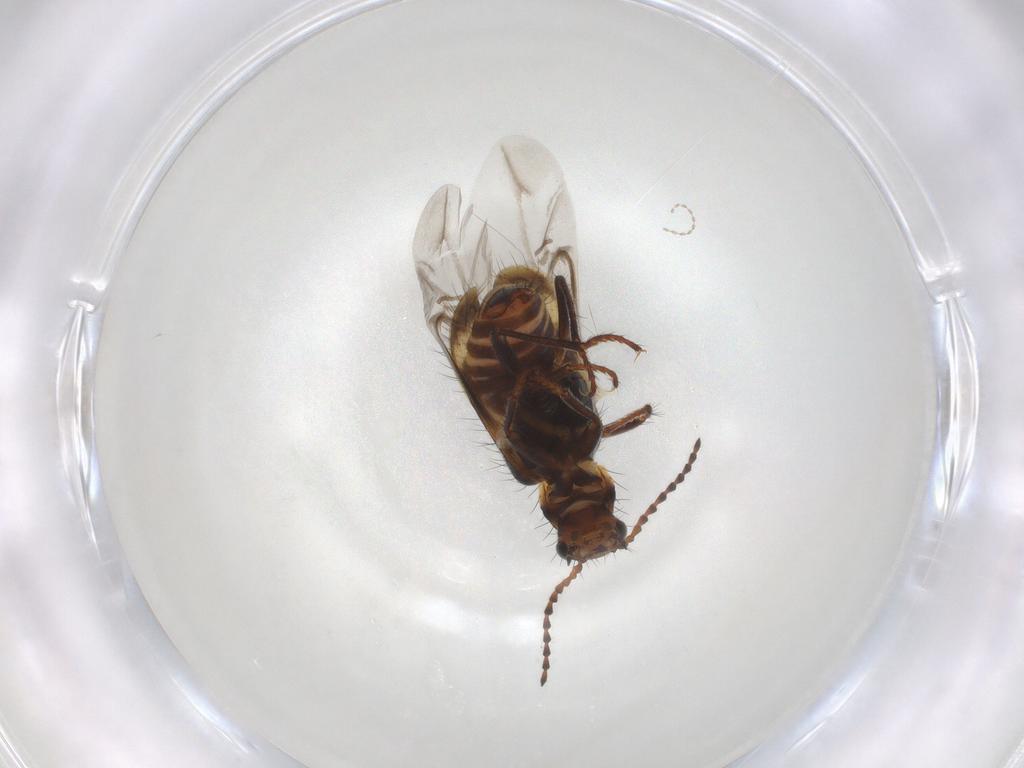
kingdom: Animalia
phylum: Arthropoda
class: Insecta
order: Coleoptera
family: Melyridae
